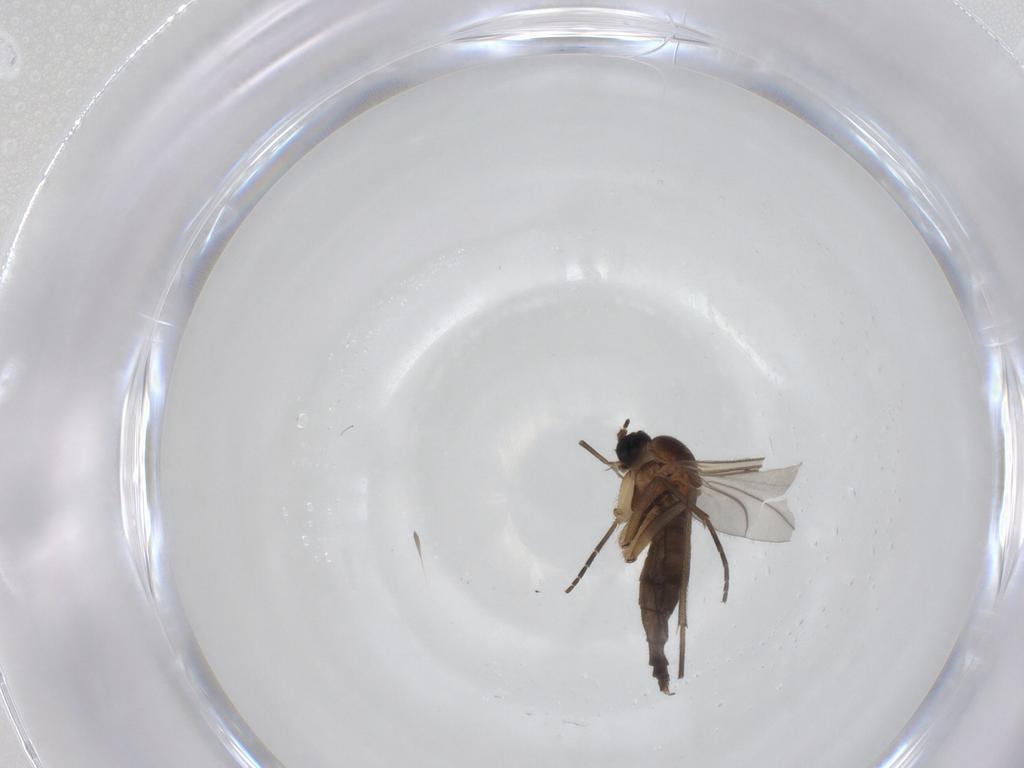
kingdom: Animalia
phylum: Arthropoda
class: Insecta
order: Diptera
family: Sciaridae
